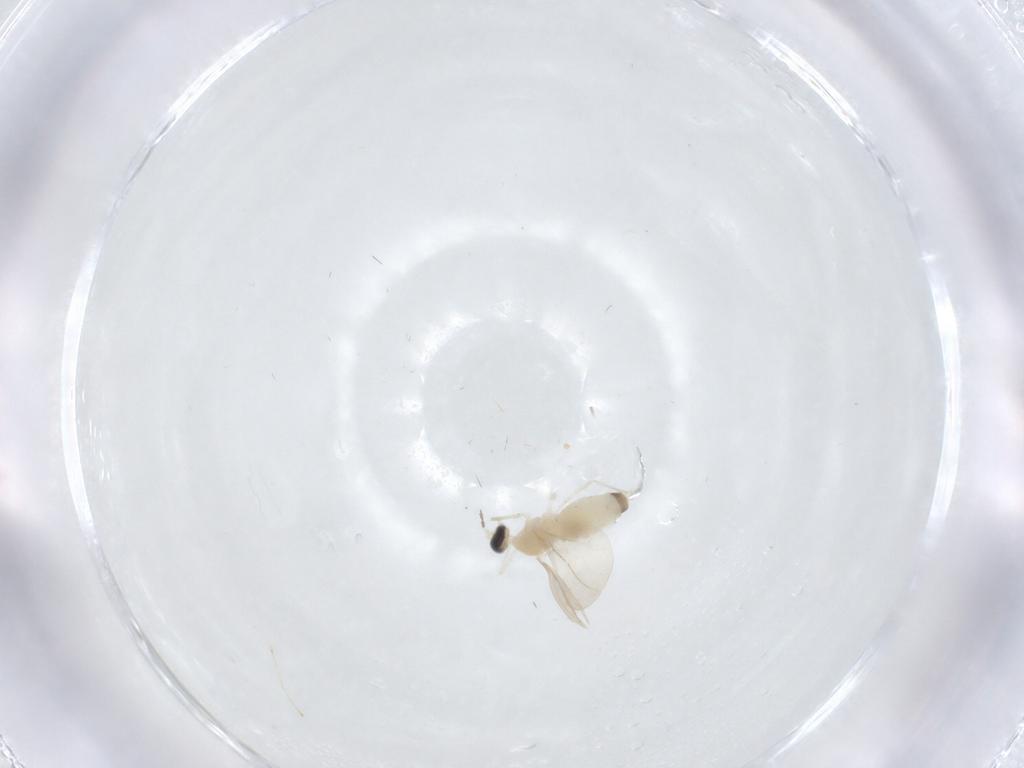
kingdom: Animalia
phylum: Arthropoda
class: Insecta
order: Diptera
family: Cecidomyiidae
